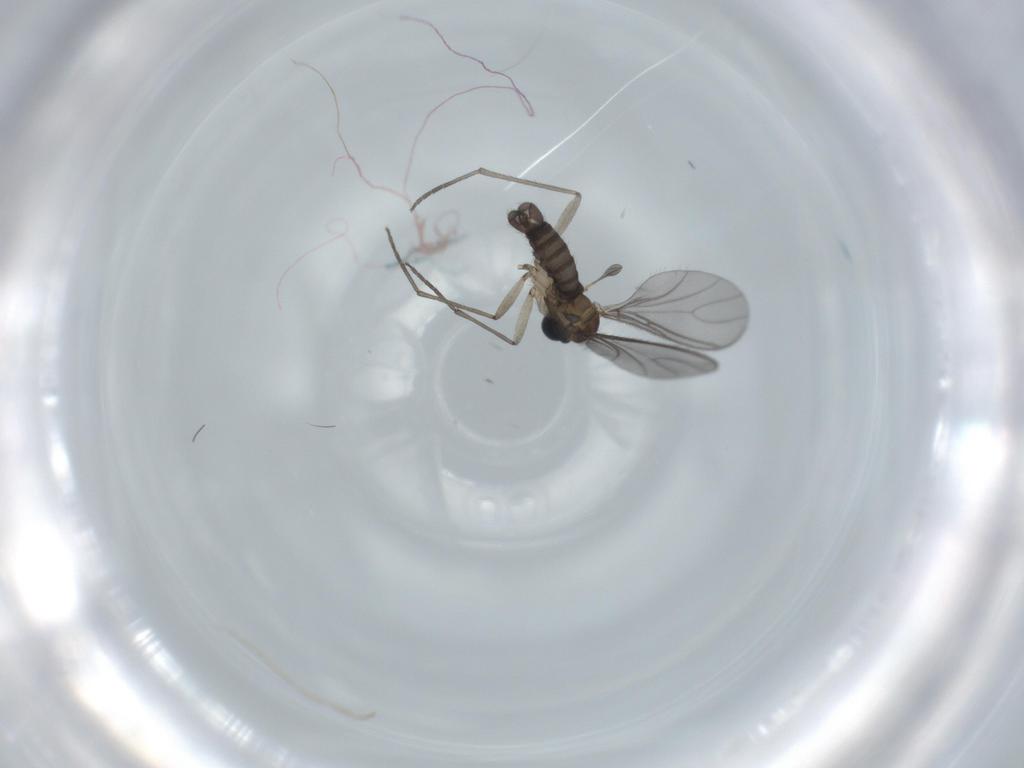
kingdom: Animalia
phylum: Arthropoda
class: Insecta
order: Diptera
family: Sciaridae
